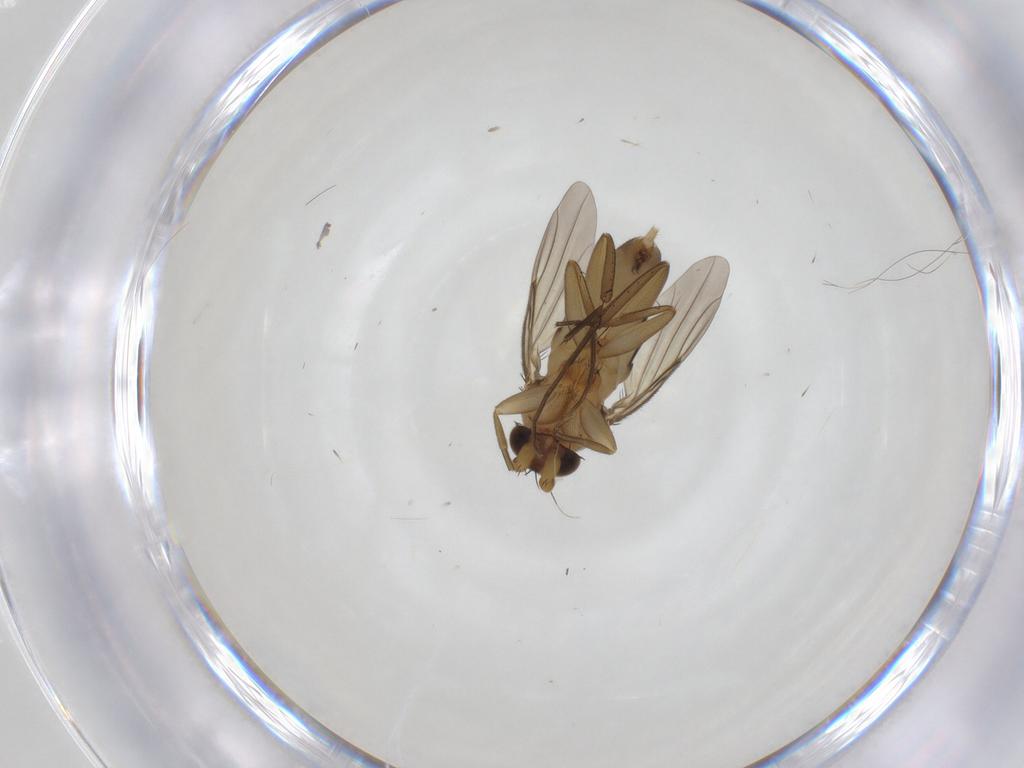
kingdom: Animalia
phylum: Arthropoda
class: Insecta
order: Diptera
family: Phoridae
